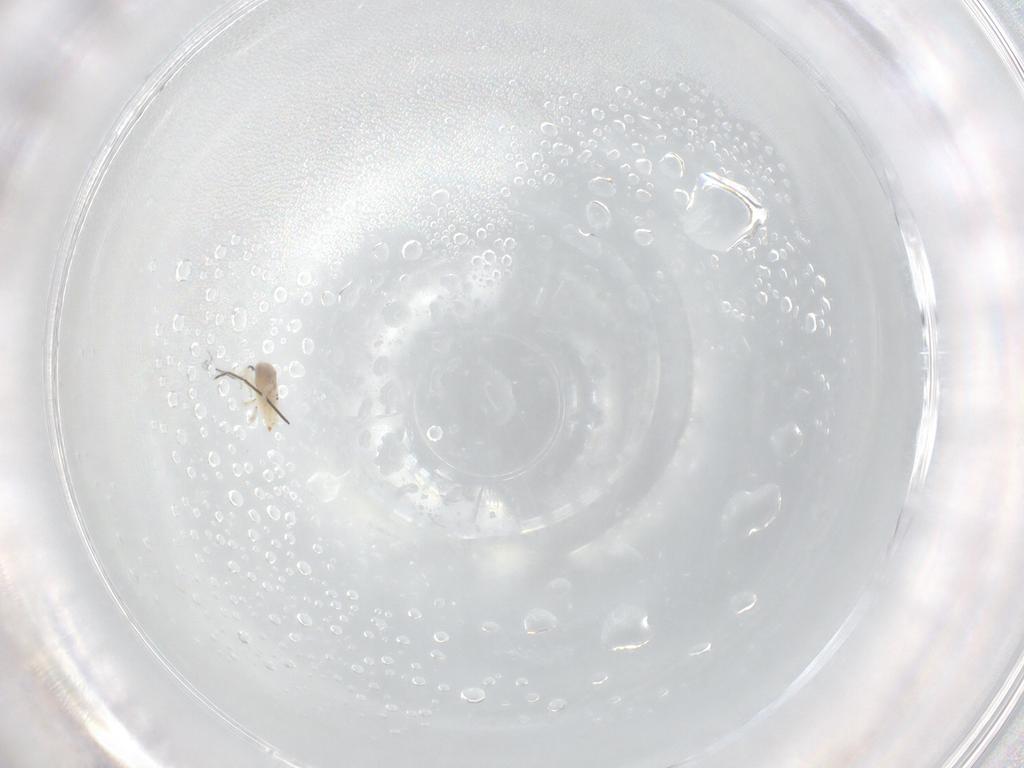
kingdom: Animalia
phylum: Arthropoda
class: Arachnida
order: Trombidiformes
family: Bdellidae
